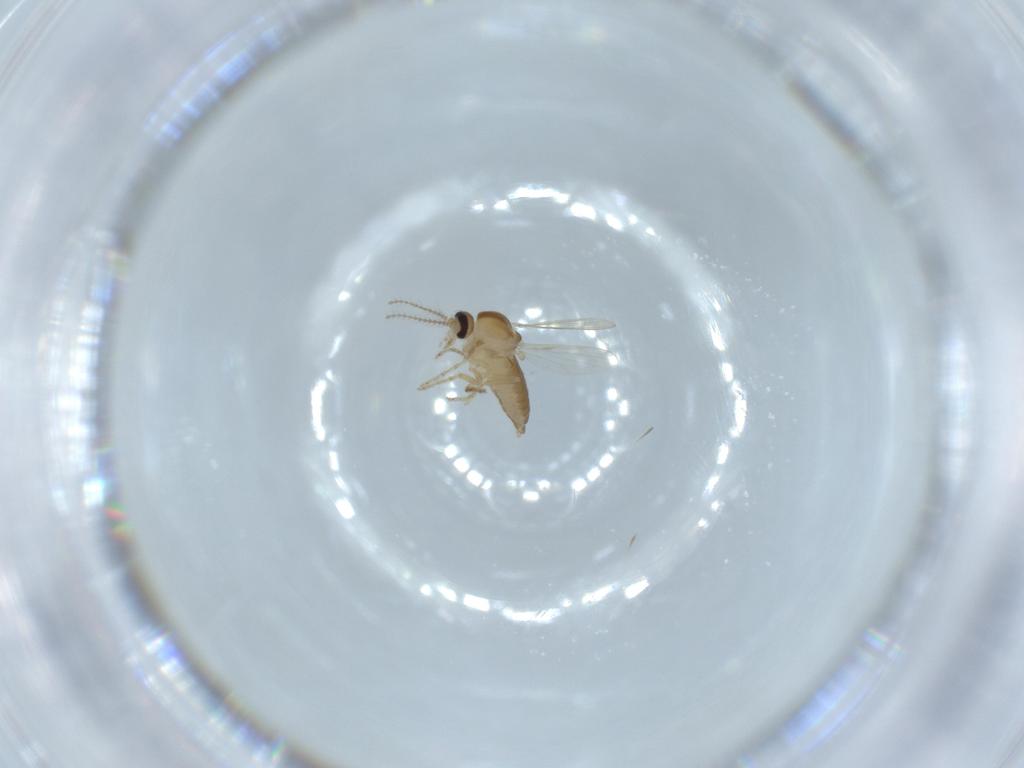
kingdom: Animalia
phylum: Arthropoda
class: Insecta
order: Diptera
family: Ceratopogonidae
